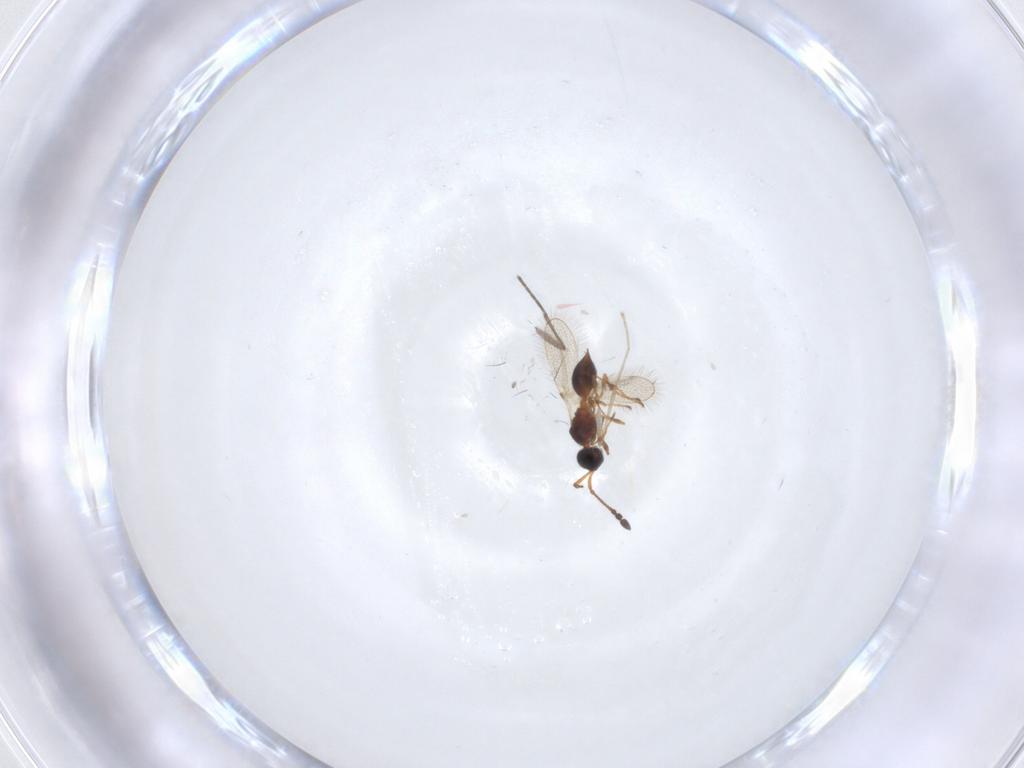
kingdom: Animalia
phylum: Arthropoda
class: Insecta
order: Hymenoptera
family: Diapriidae
